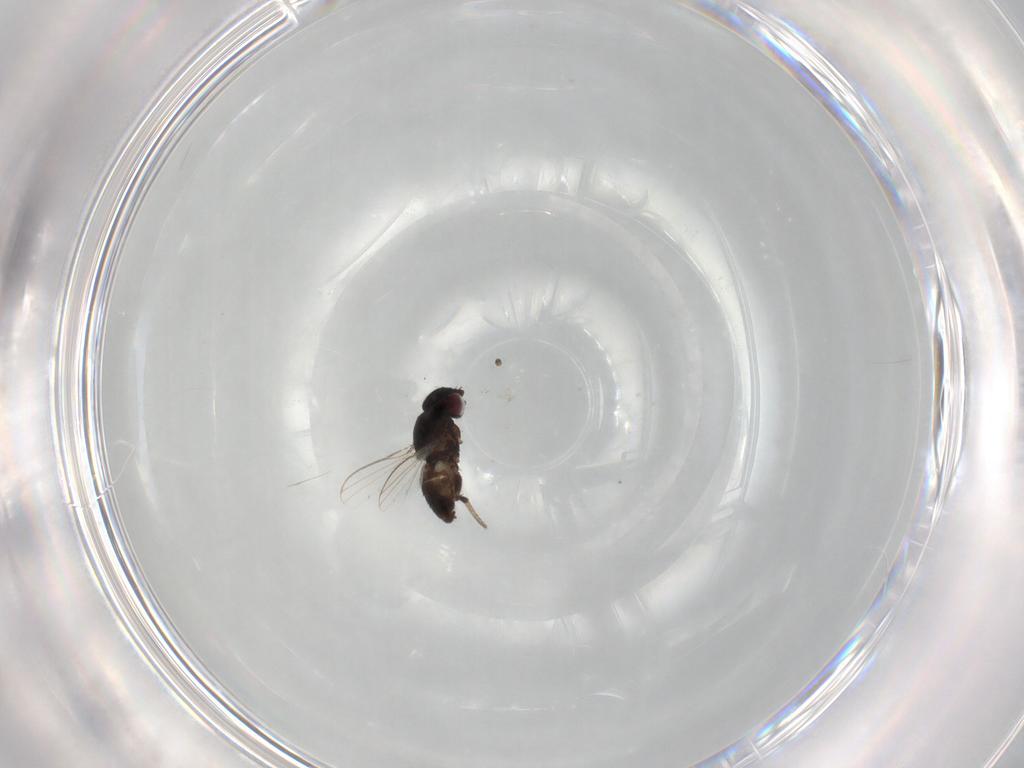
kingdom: Animalia
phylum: Arthropoda
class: Insecta
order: Diptera
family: Milichiidae
